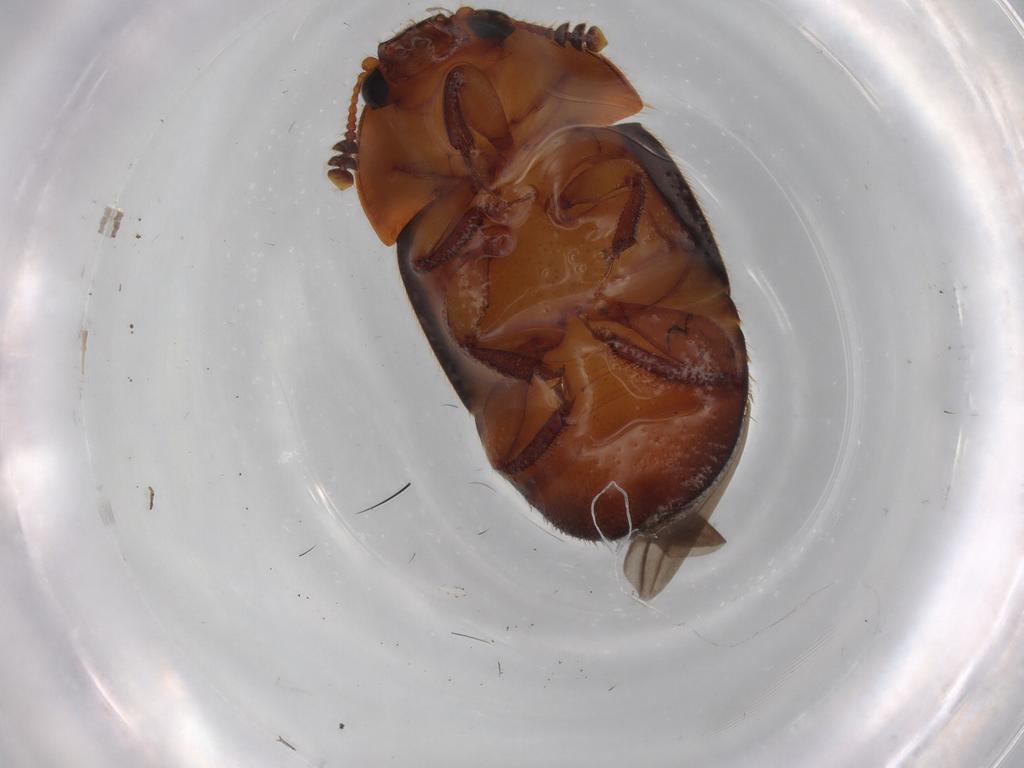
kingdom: Animalia
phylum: Arthropoda
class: Insecta
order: Coleoptera
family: Nitidulidae
